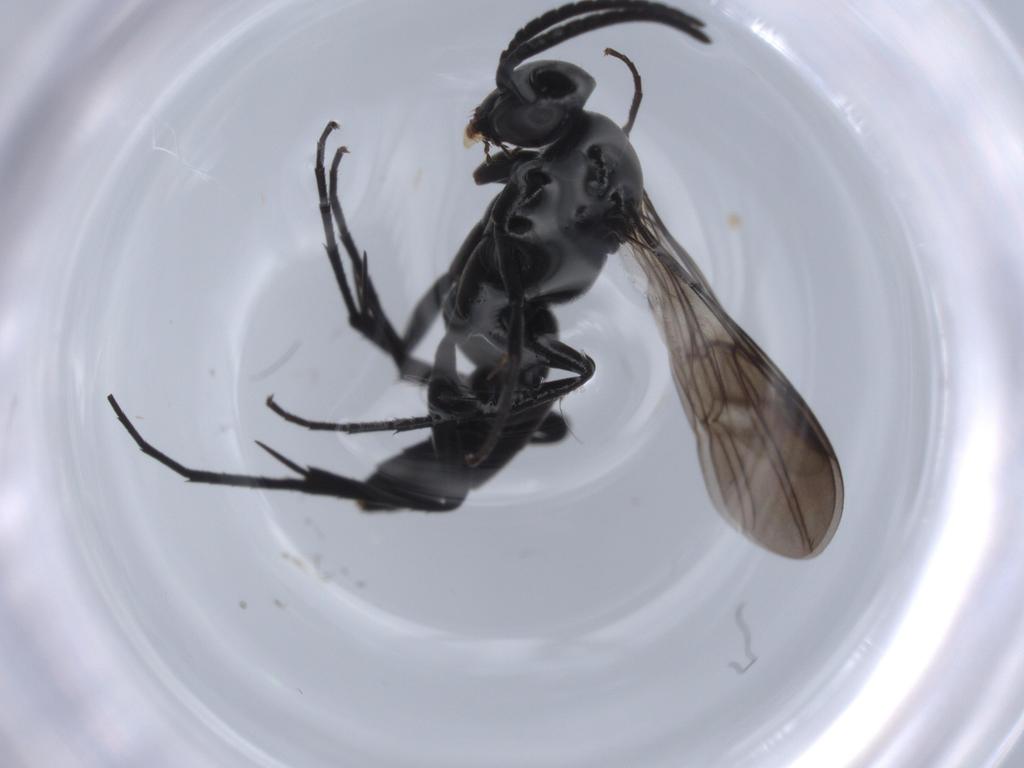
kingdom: Animalia
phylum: Arthropoda
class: Insecta
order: Hymenoptera
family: Pompilidae
